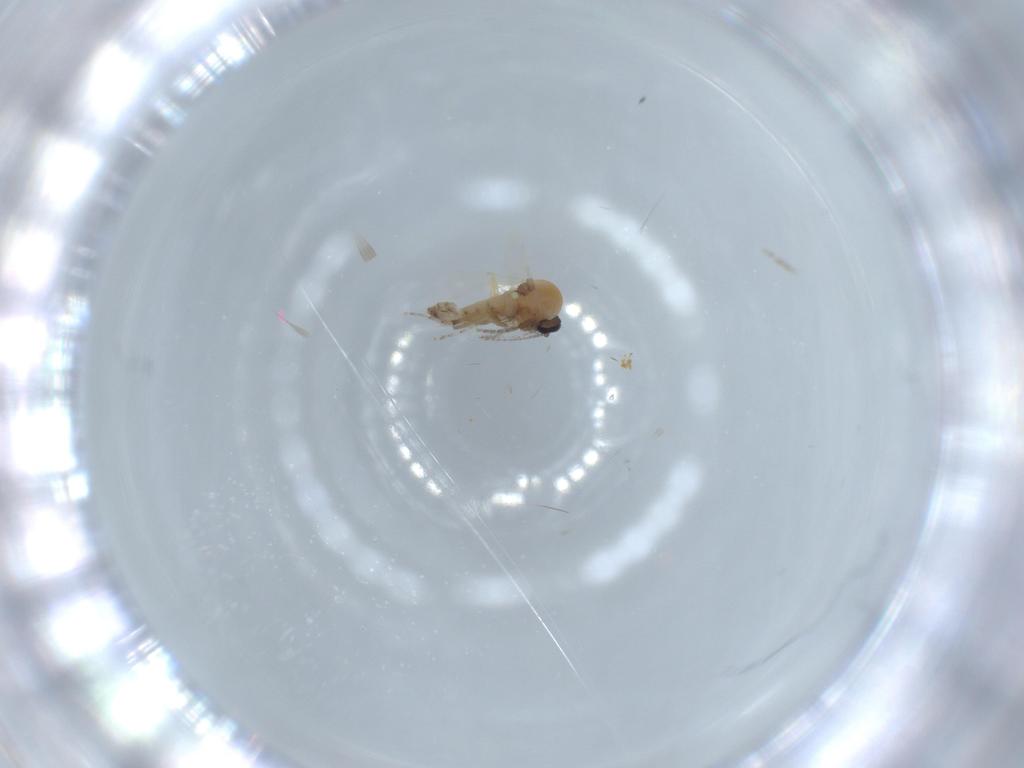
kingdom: Animalia
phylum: Arthropoda
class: Insecta
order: Diptera
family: Ceratopogonidae
